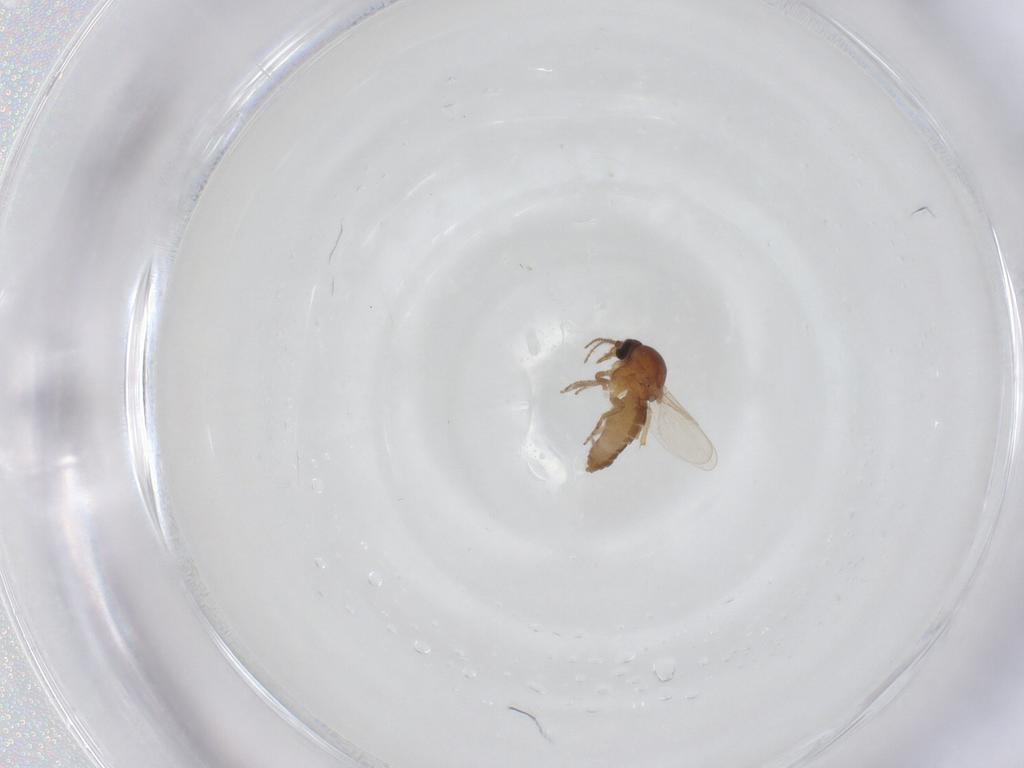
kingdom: Animalia
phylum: Arthropoda
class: Insecta
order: Diptera
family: Ceratopogonidae
